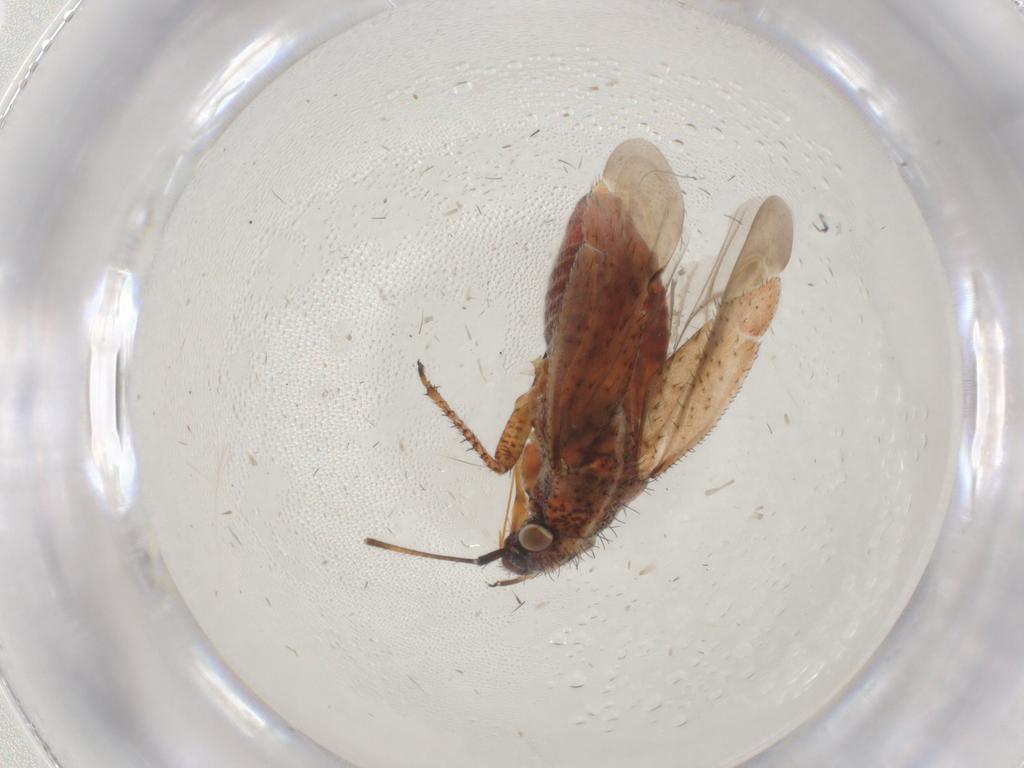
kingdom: Animalia
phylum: Arthropoda
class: Insecta
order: Hemiptera
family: Miridae
